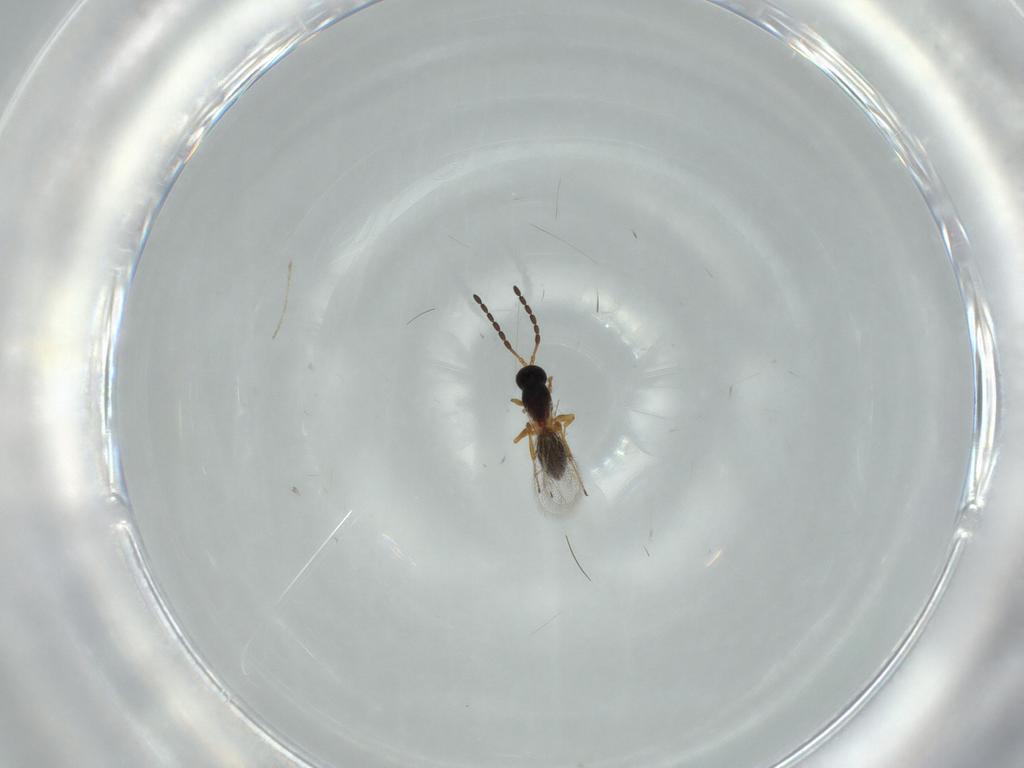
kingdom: Animalia
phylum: Arthropoda
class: Insecta
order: Hymenoptera
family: Figitidae
